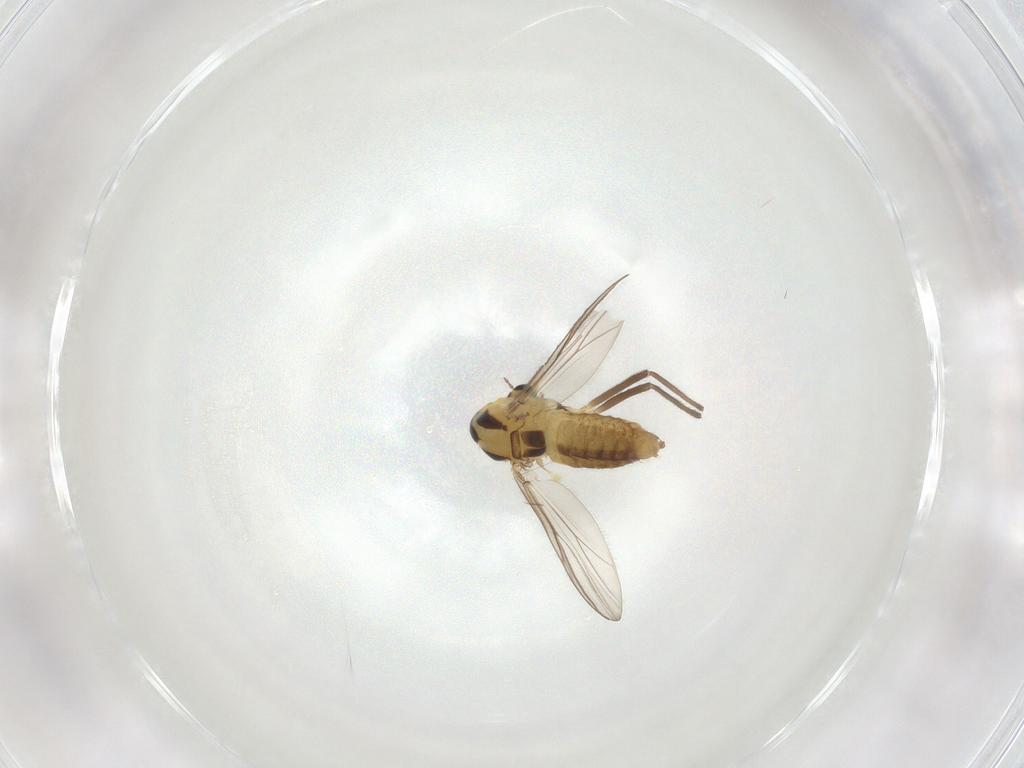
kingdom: Animalia
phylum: Arthropoda
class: Insecta
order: Diptera
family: Chironomidae
